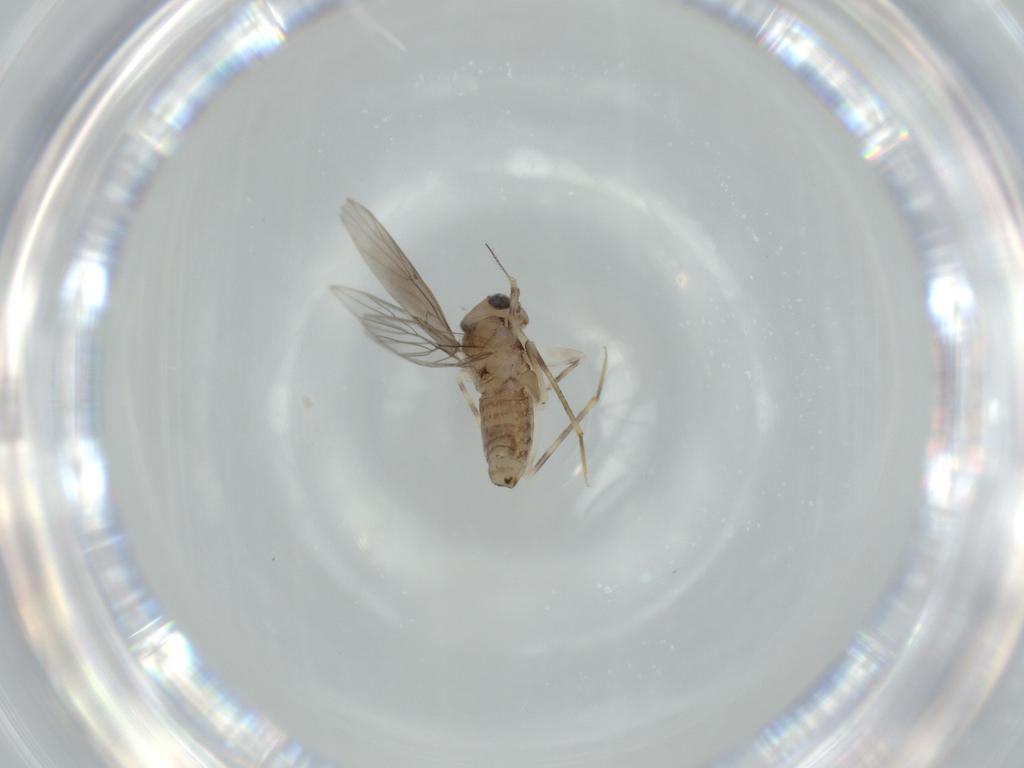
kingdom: Animalia
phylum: Arthropoda
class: Insecta
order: Psocodea
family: Lepidopsocidae
